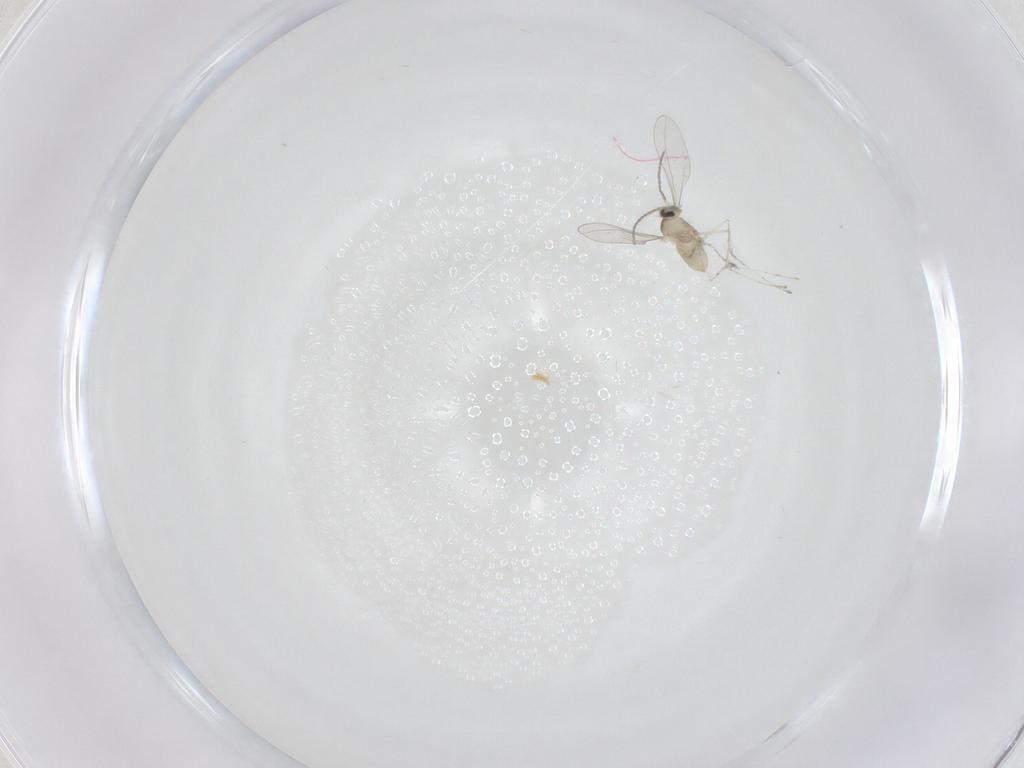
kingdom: Animalia
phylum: Arthropoda
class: Insecta
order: Diptera
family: Cecidomyiidae
